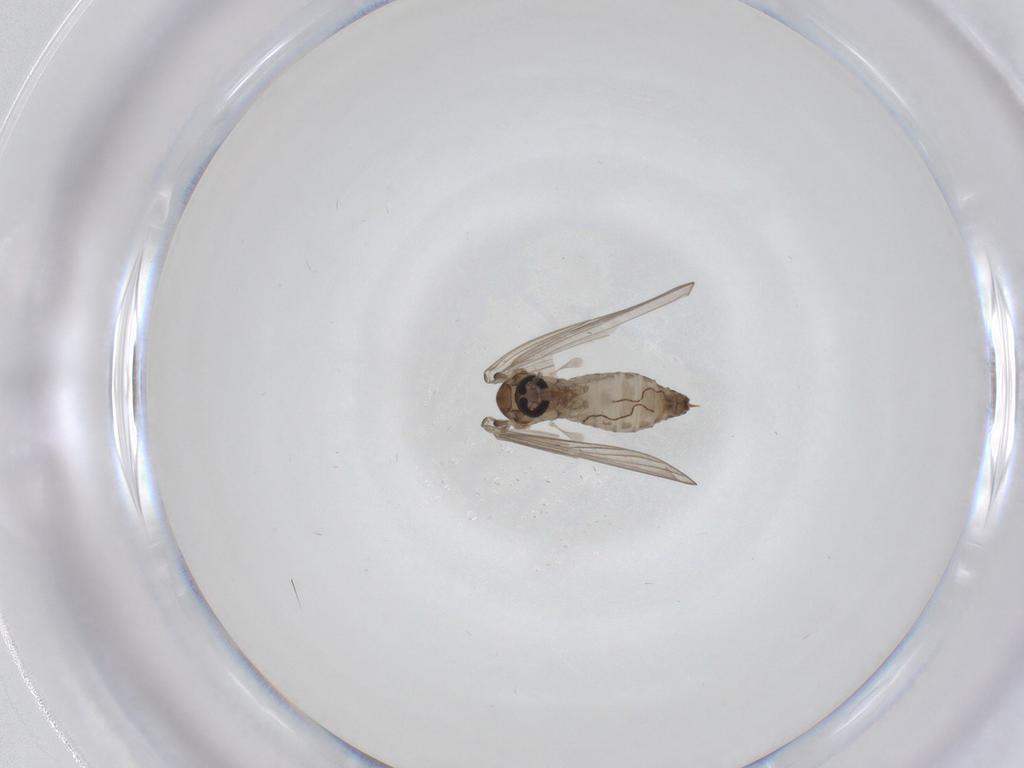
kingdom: Animalia
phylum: Arthropoda
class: Insecta
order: Diptera
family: Psychodidae
